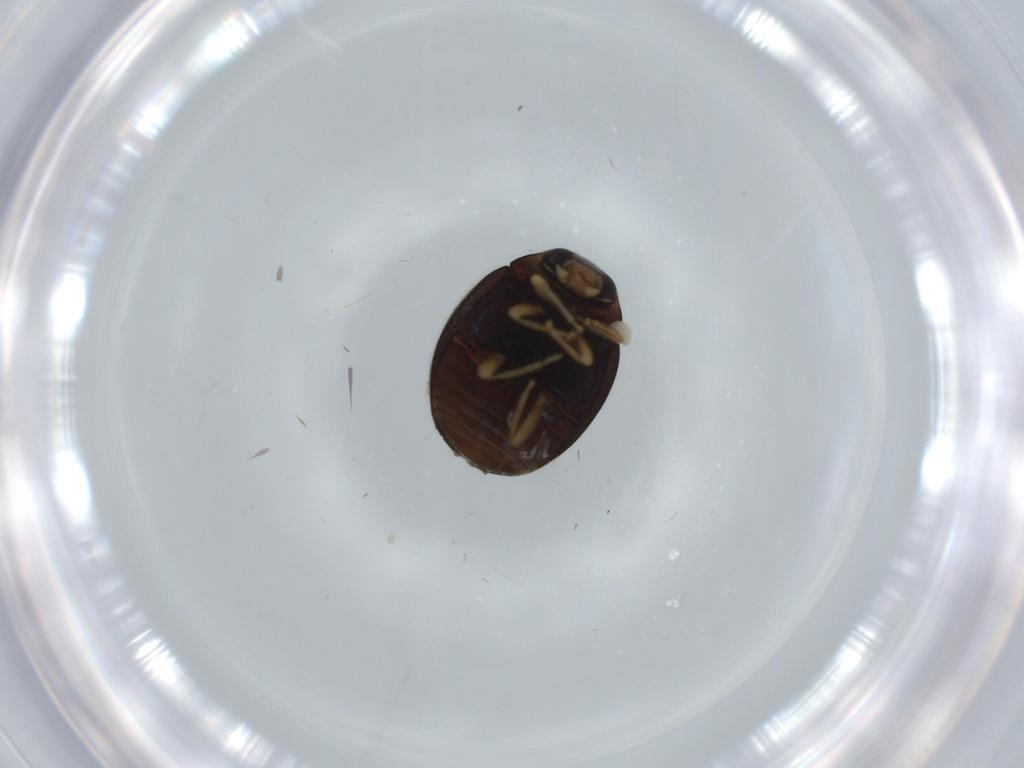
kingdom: Animalia
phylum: Arthropoda
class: Insecta
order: Coleoptera
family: Coccinellidae
